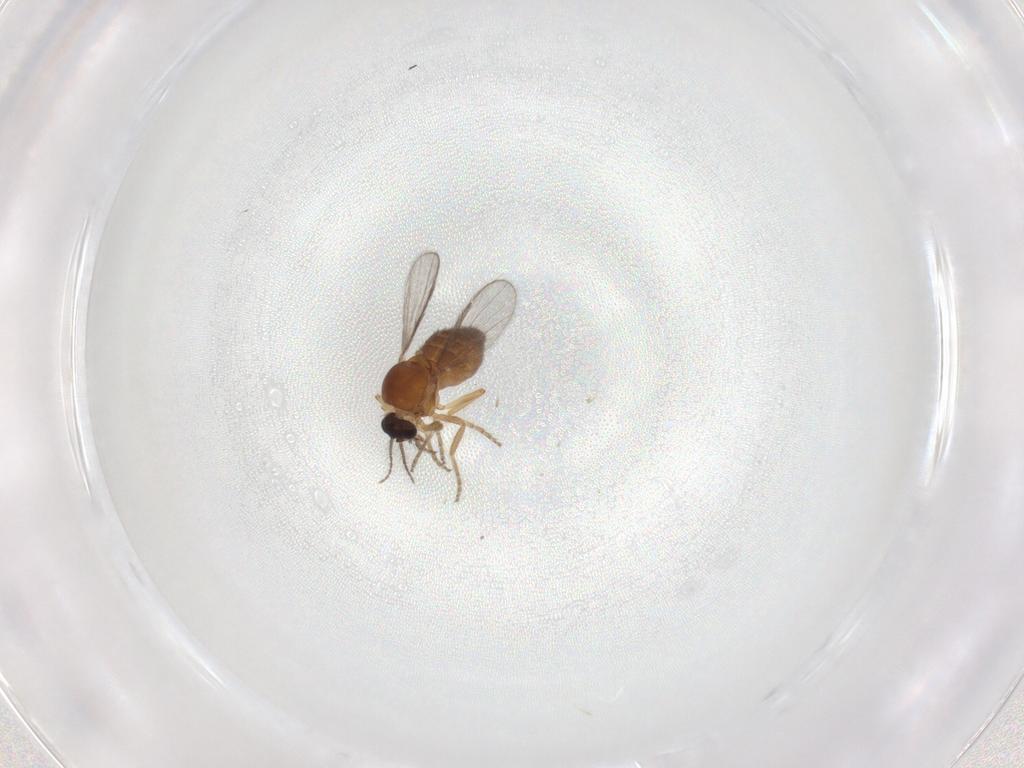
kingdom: Animalia
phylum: Arthropoda
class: Insecta
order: Diptera
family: Ceratopogonidae
